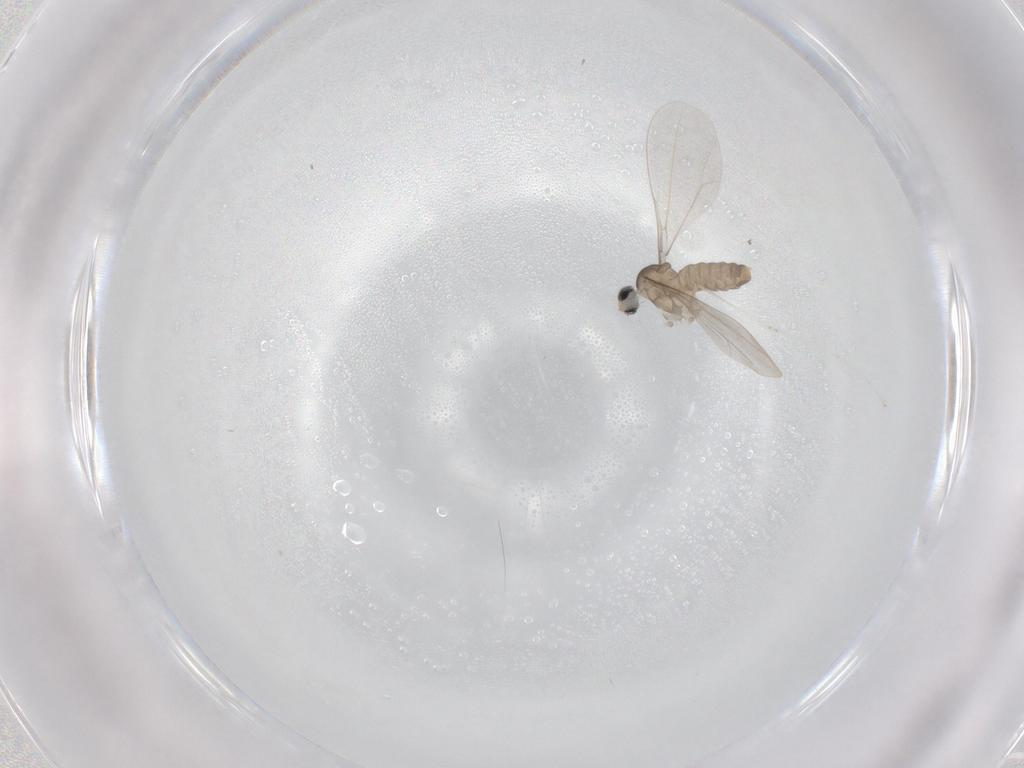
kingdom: Animalia
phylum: Arthropoda
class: Insecta
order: Diptera
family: Cecidomyiidae
